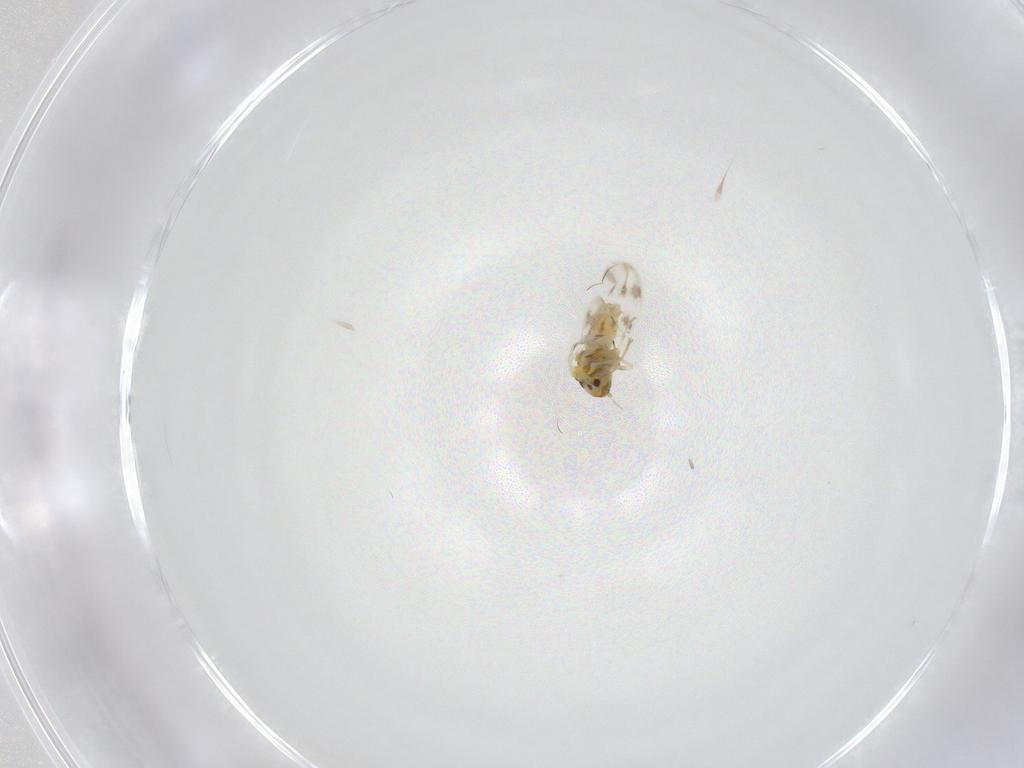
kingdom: Animalia
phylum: Arthropoda
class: Insecta
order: Hemiptera
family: Aleyrodidae
